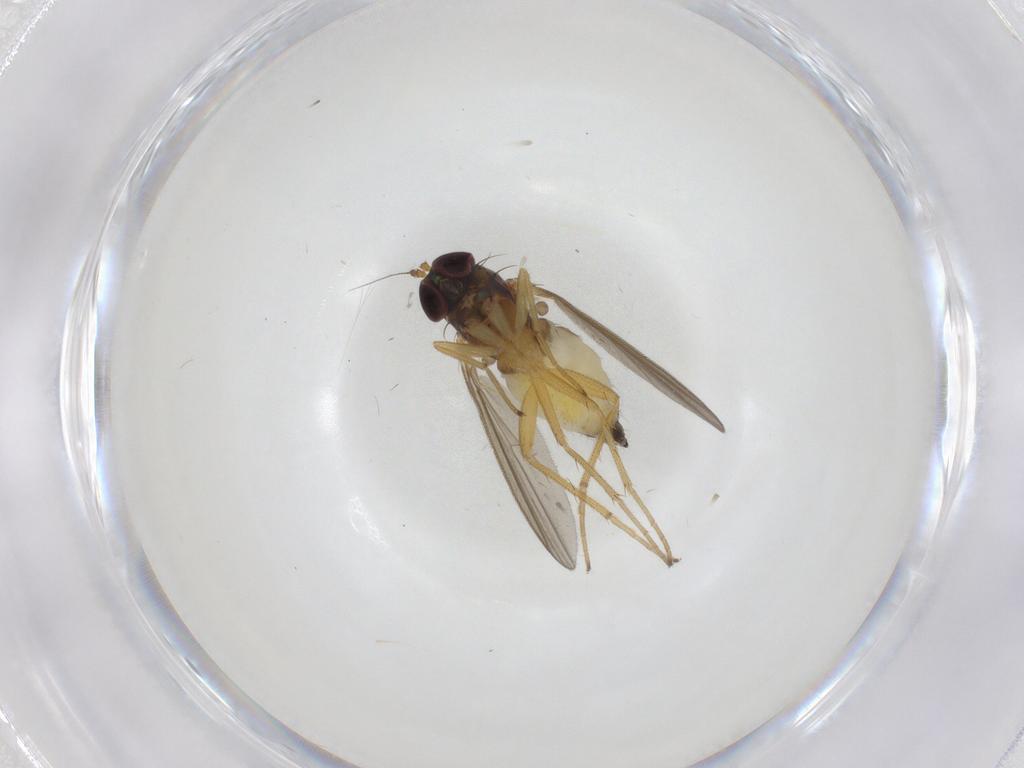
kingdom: Animalia
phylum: Arthropoda
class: Insecta
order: Diptera
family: Dolichopodidae
